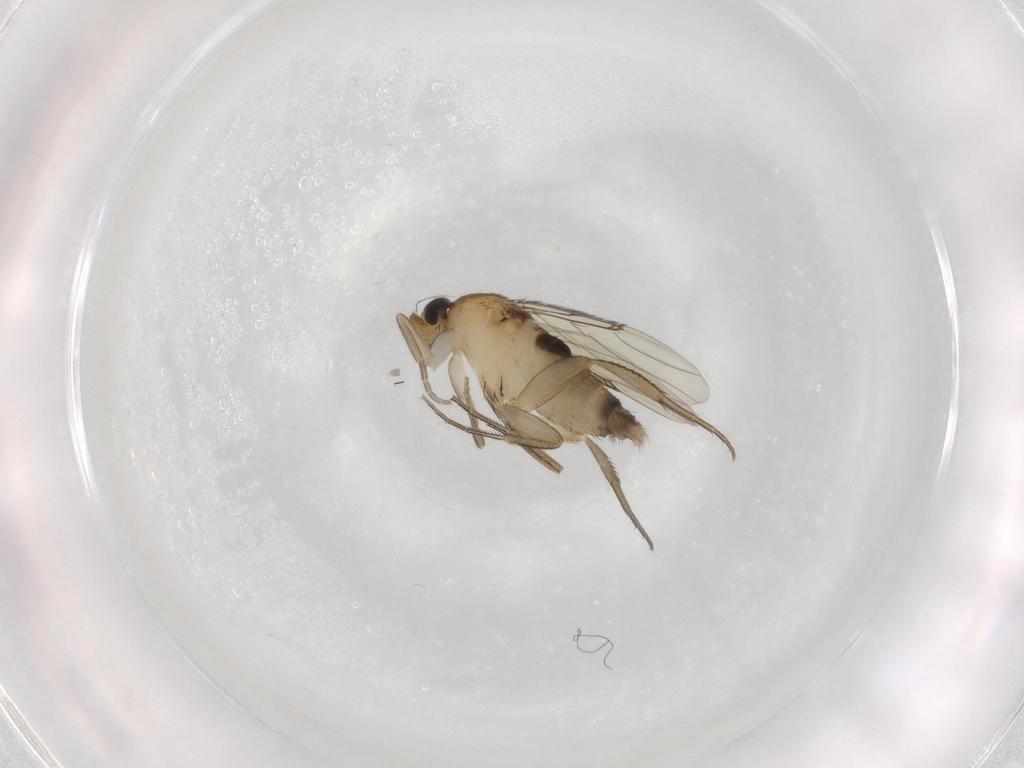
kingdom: Animalia
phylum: Arthropoda
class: Insecta
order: Diptera
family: Phoridae
